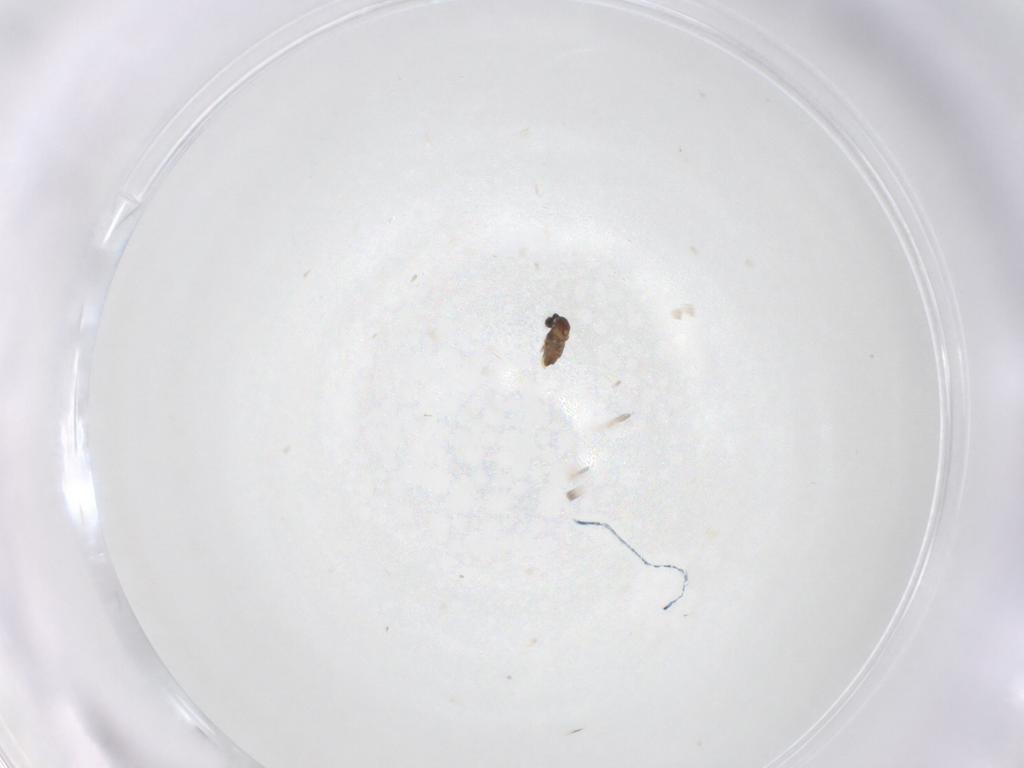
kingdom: Animalia
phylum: Arthropoda
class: Insecta
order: Diptera
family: Cecidomyiidae
